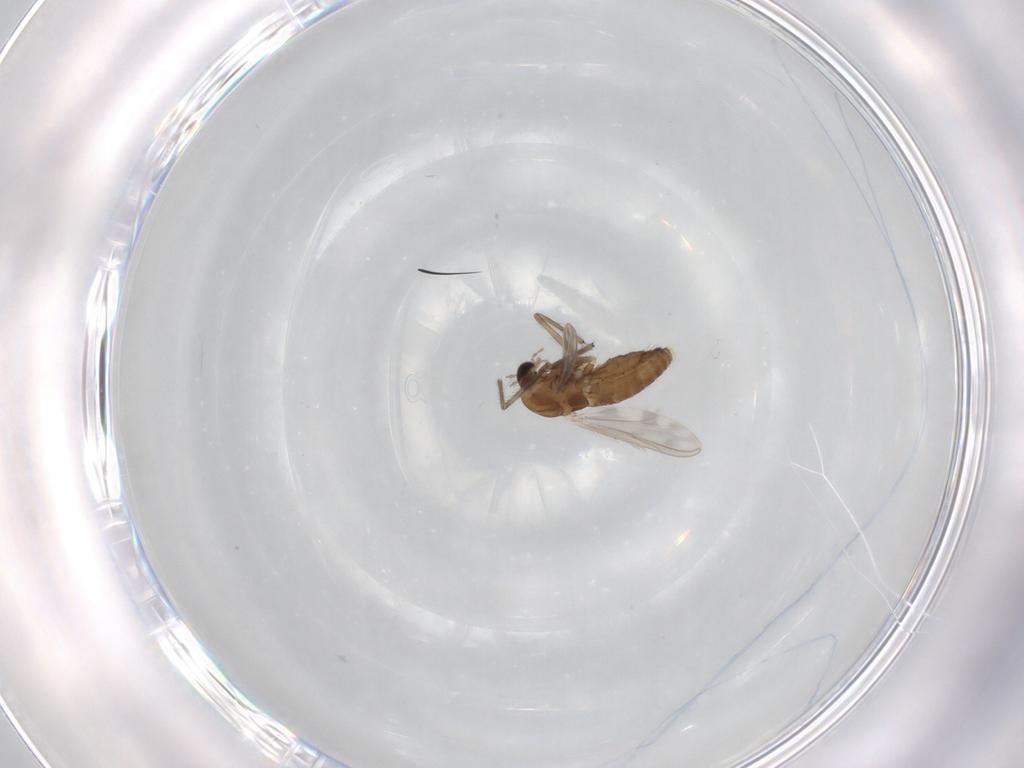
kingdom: Animalia
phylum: Arthropoda
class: Insecta
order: Diptera
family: Chironomidae
